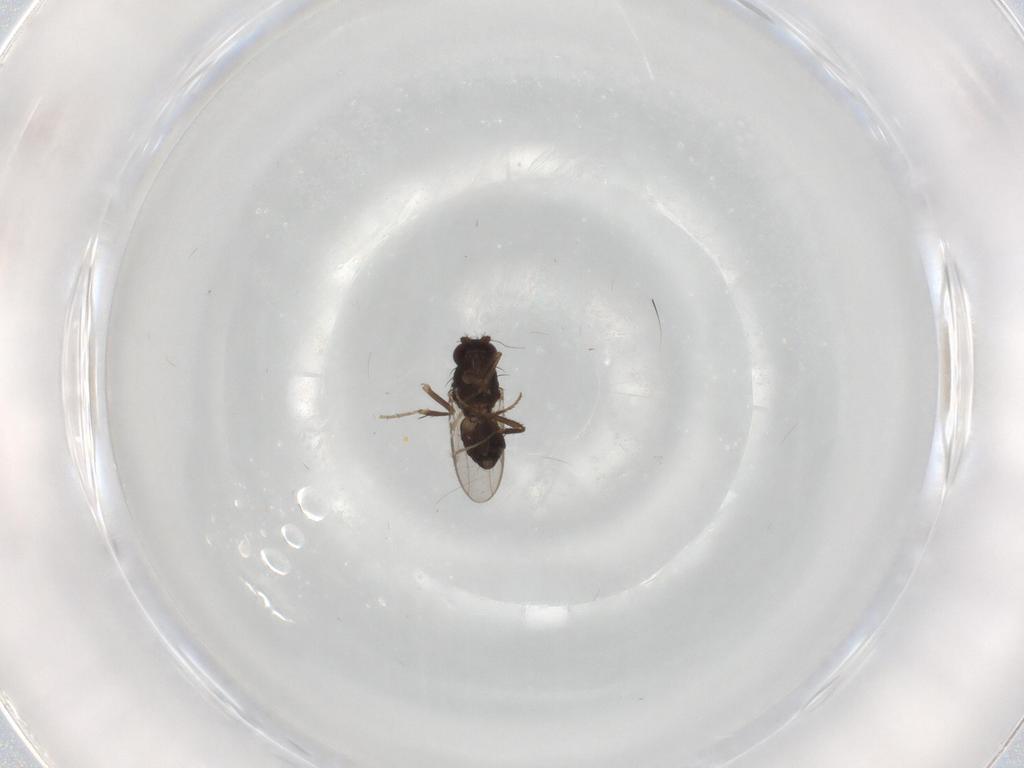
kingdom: Animalia
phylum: Arthropoda
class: Insecta
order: Diptera
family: Sphaeroceridae
